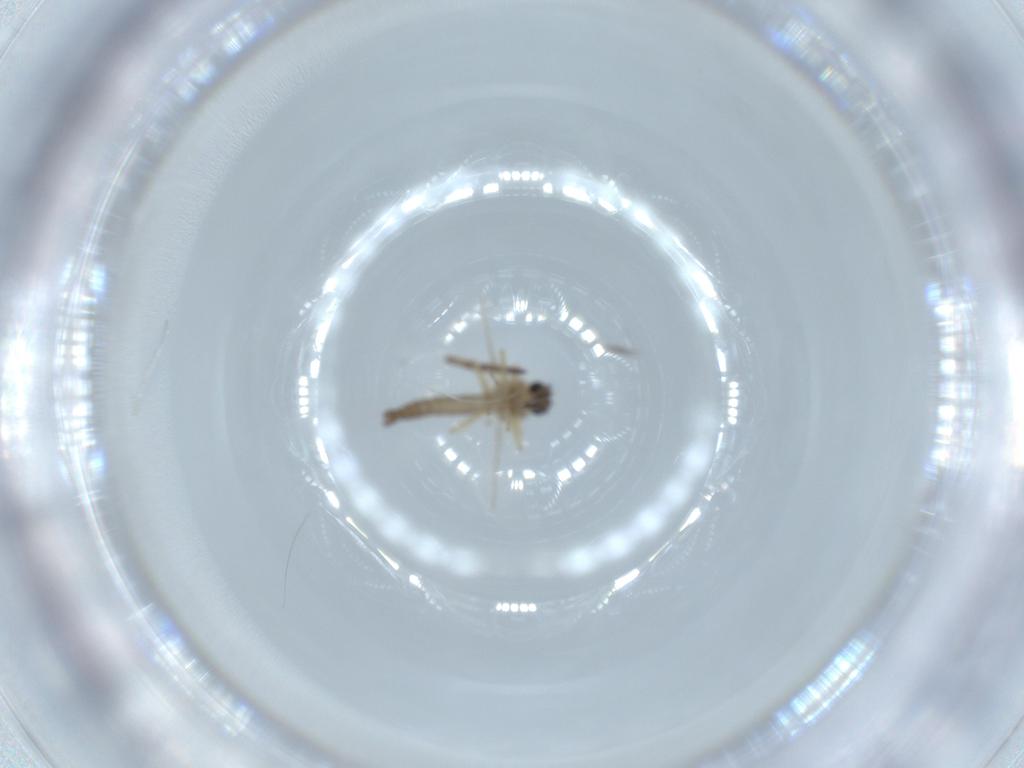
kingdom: Animalia
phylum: Arthropoda
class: Insecta
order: Diptera
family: Ceratopogonidae
